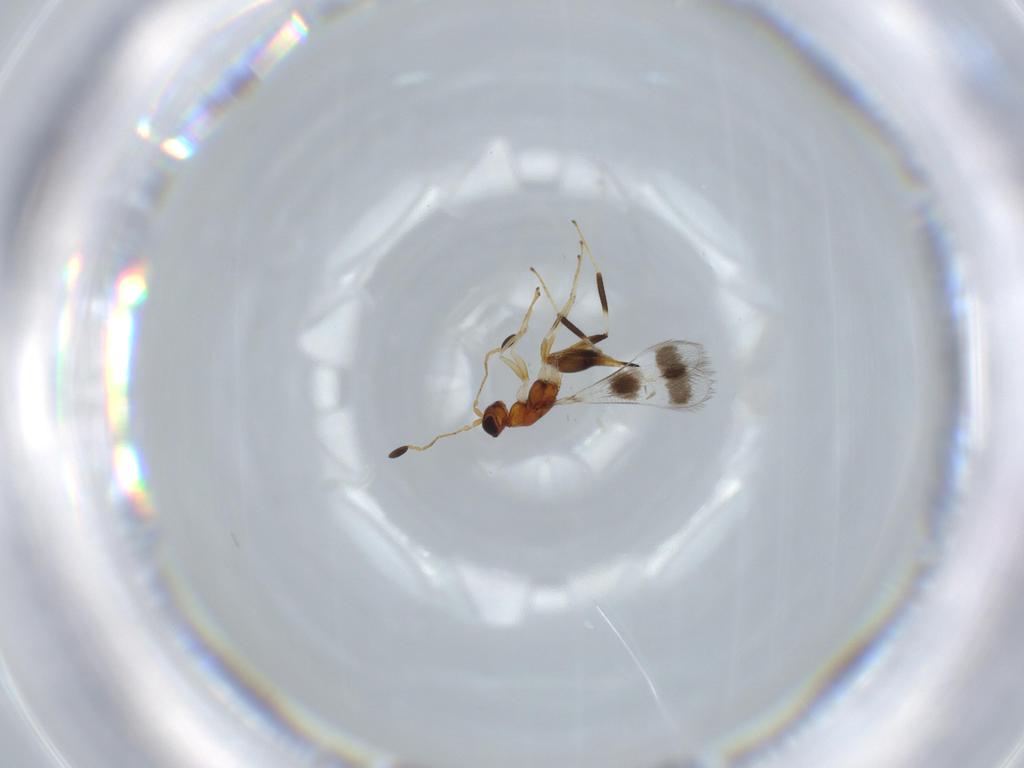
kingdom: Animalia
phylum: Arthropoda
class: Insecta
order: Hymenoptera
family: Mymaridae
